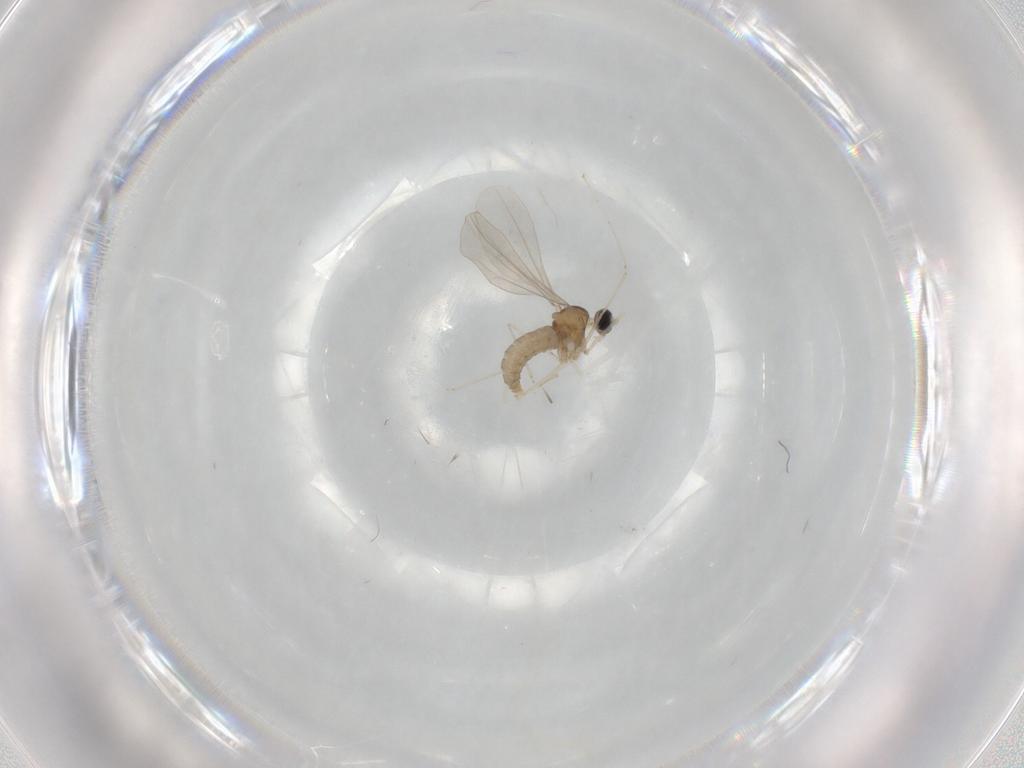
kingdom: Animalia
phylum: Arthropoda
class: Insecta
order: Diptera
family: Cecidomyiidae
